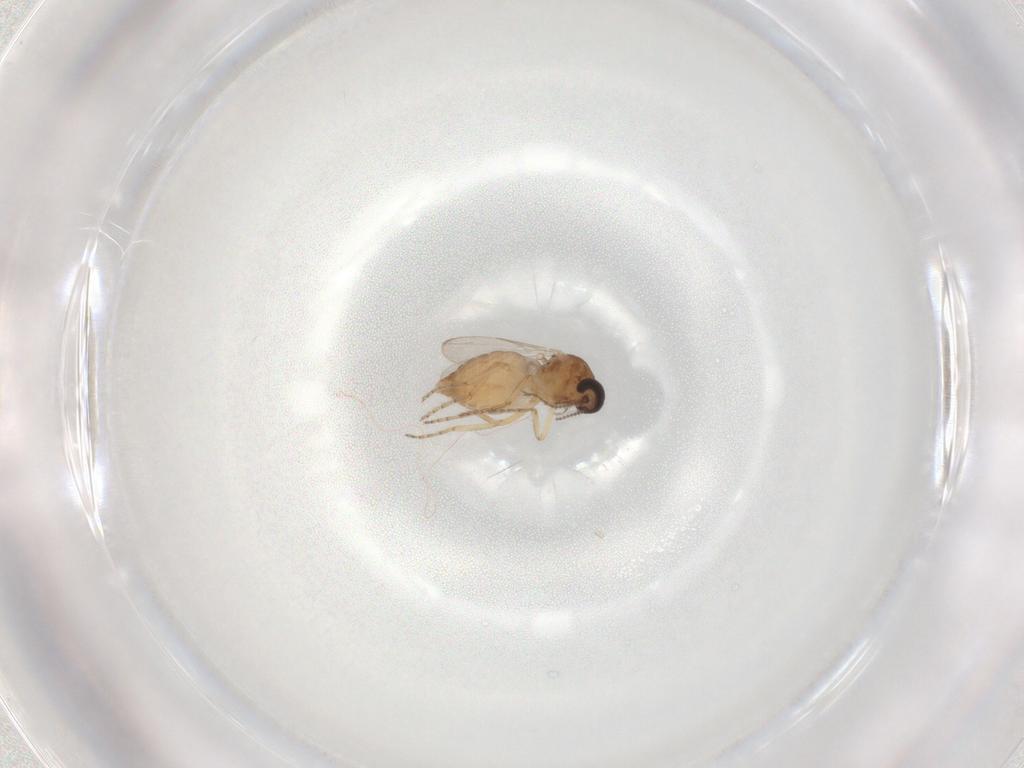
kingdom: Animalia
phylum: Arthropoda
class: Insecta
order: Diptera
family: Ceratopogonidae
